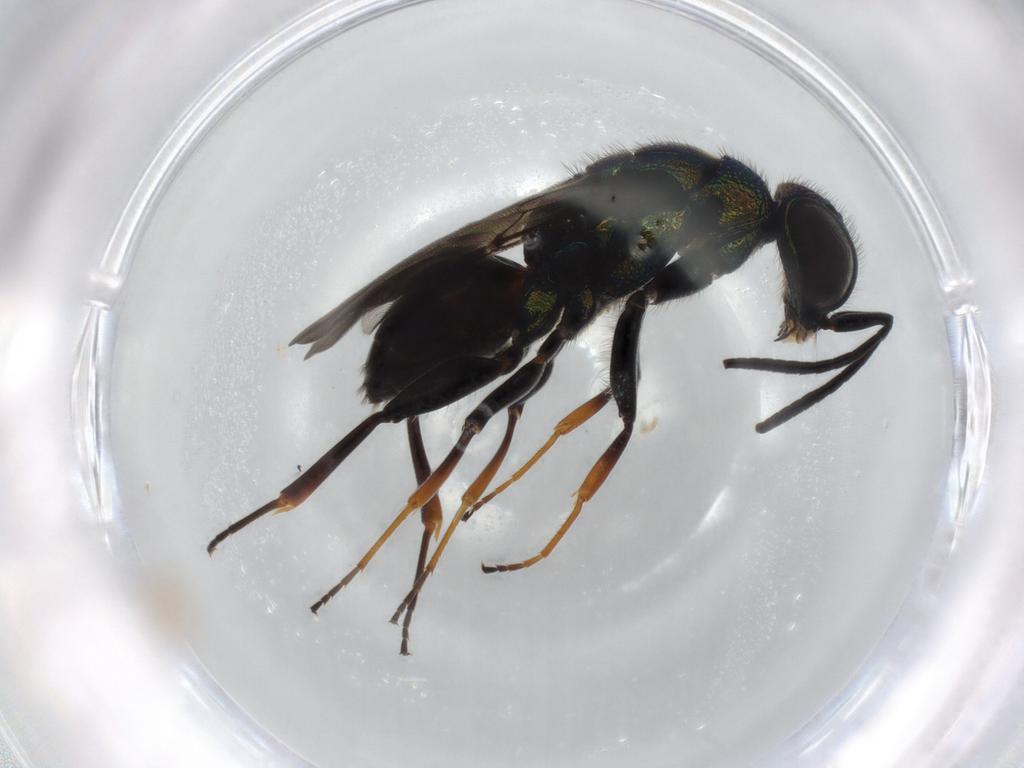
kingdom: Animalia
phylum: Arthropoda
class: Insecta
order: Hymenoptera
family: Chrysididae
